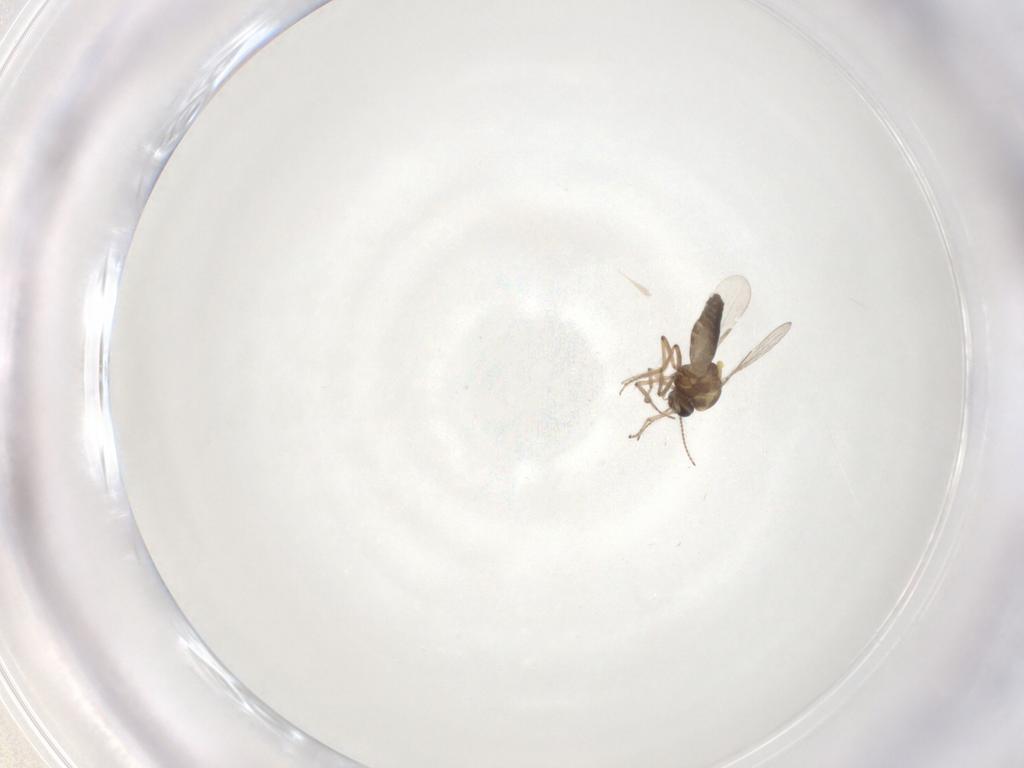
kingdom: Animalia
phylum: Arthropoda
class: Insecta
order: Diptera
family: Ceratopogonidae
